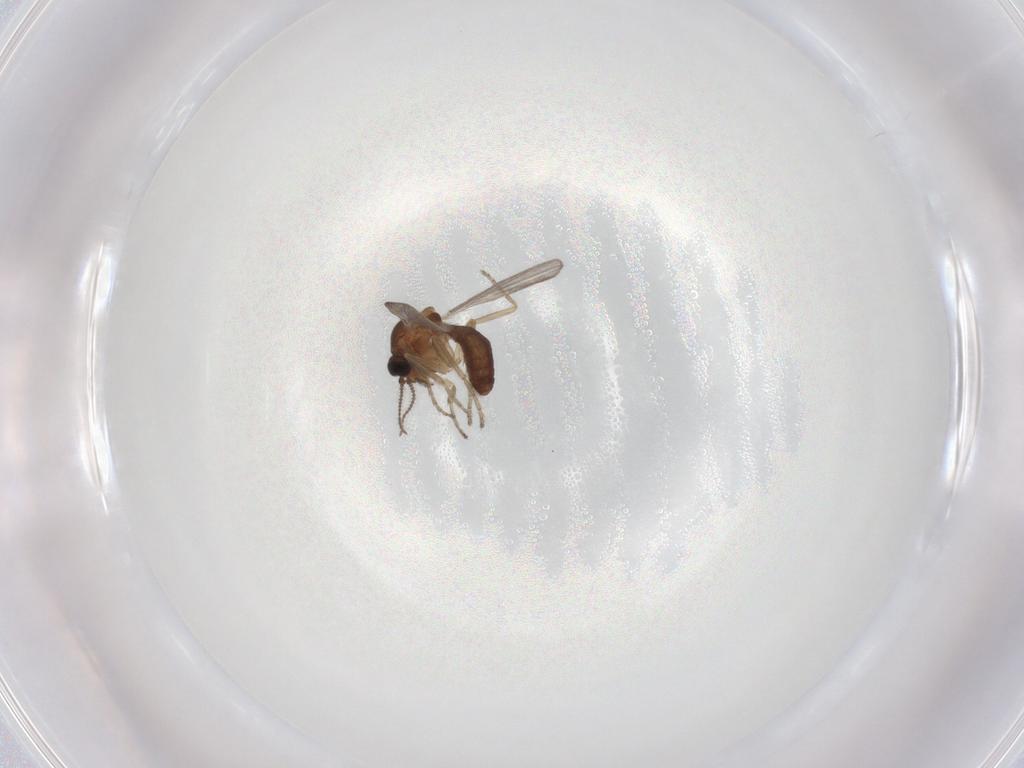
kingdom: Animalia
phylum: Arthropoda
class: Insecta
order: Diptera
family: Ceratopogonidae
